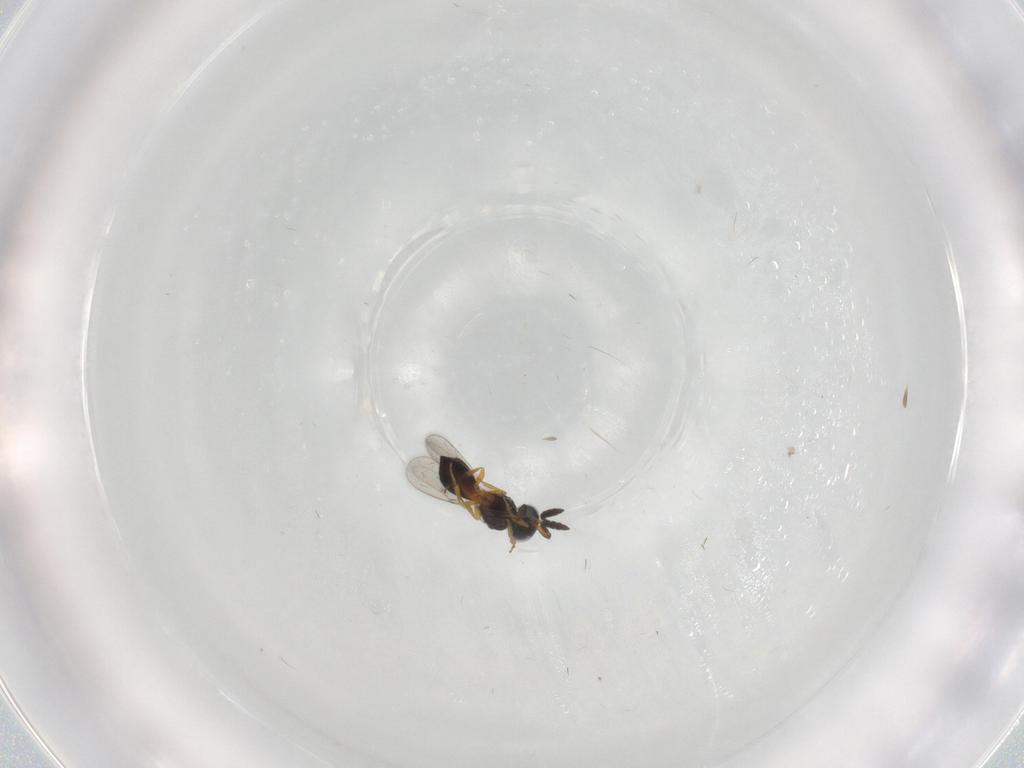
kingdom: Animalia
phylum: Arthropoda
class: Insecta
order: Hymenoptera
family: Scelionidae
